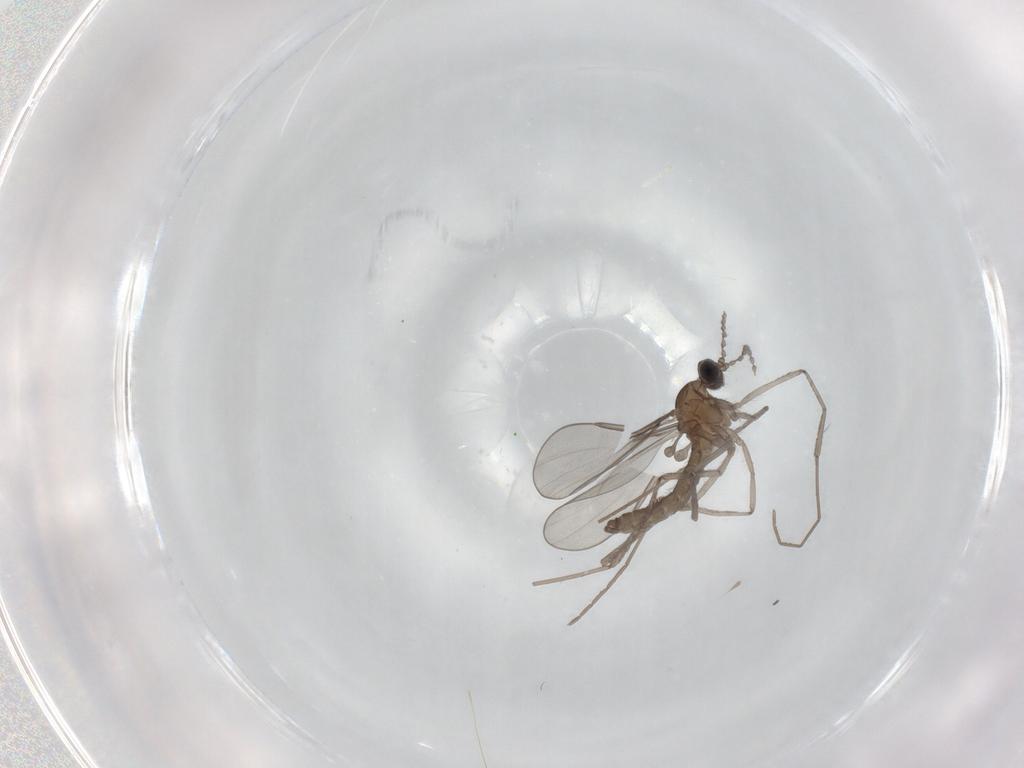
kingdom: Animalia
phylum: Arthropoda
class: Insecta
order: Diptera
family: Cecidomyiidae
